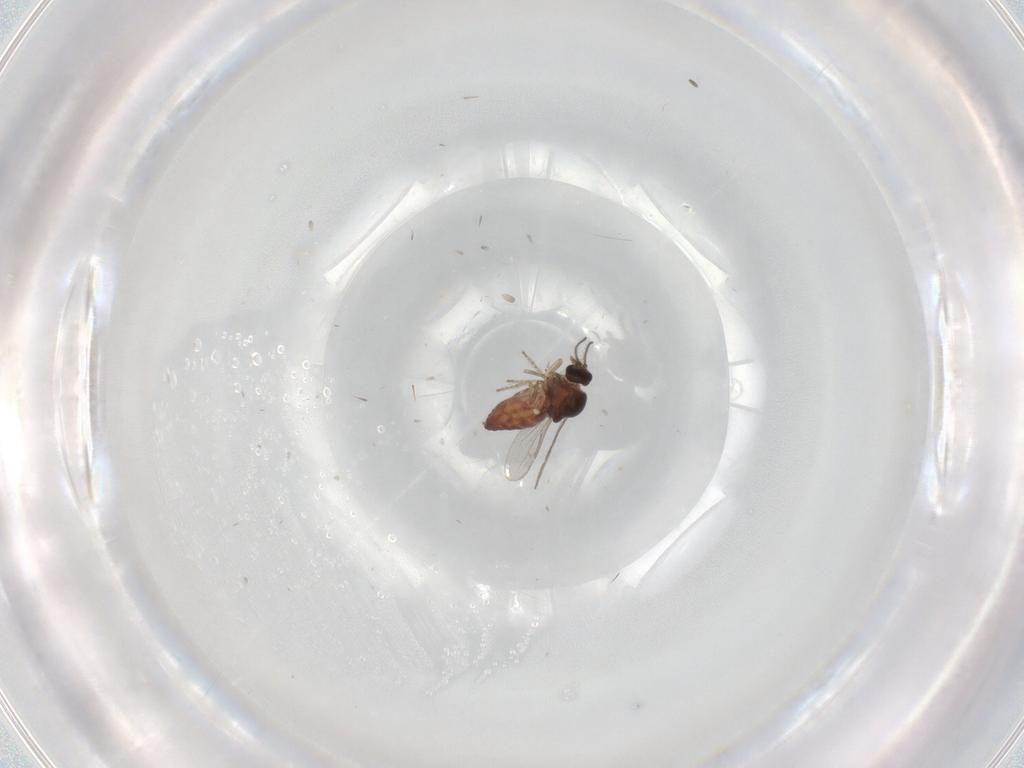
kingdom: Animalia
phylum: Arthropoda
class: Insecta
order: Diptera
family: Ceratopogonidae
